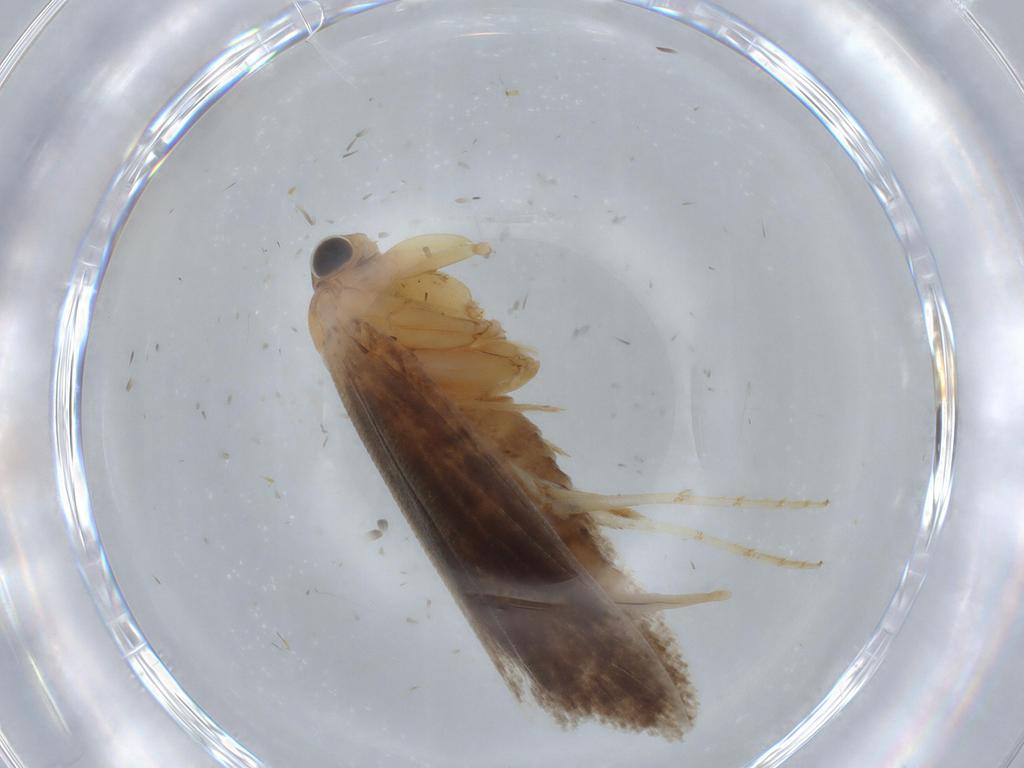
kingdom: Animalia
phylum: Arthropoda
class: Insecta
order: Lepidoptera
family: Crambidae
